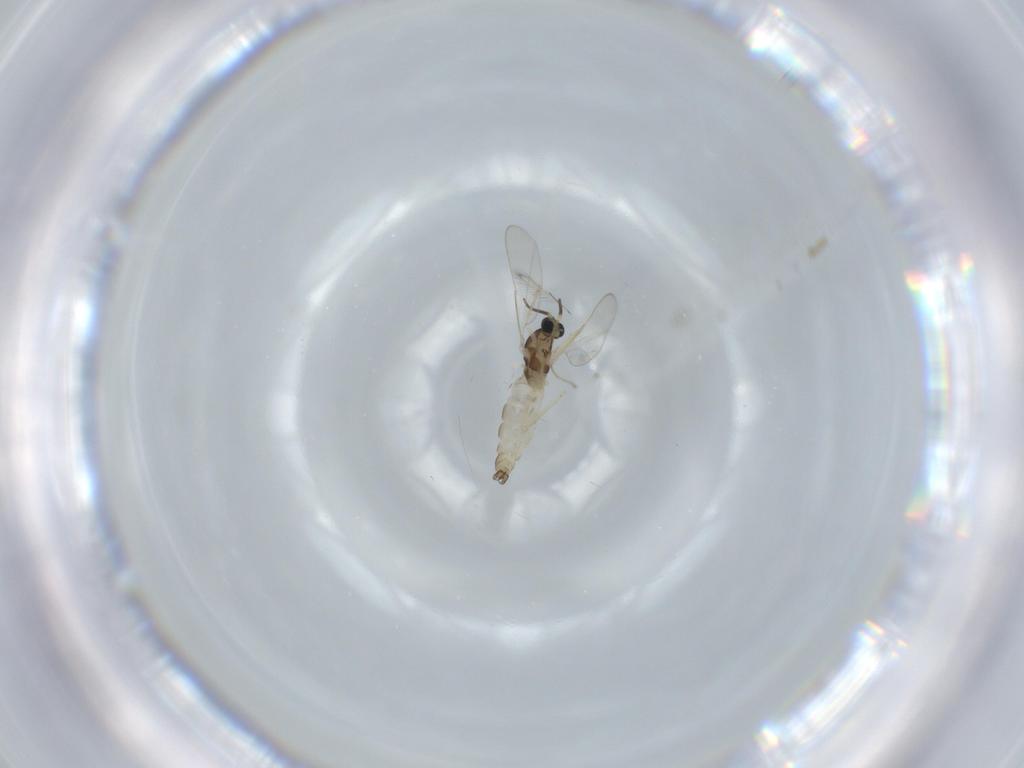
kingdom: Animalia
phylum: Arthropoda
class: Insecta
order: Diptera
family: Cecidomyiidae
